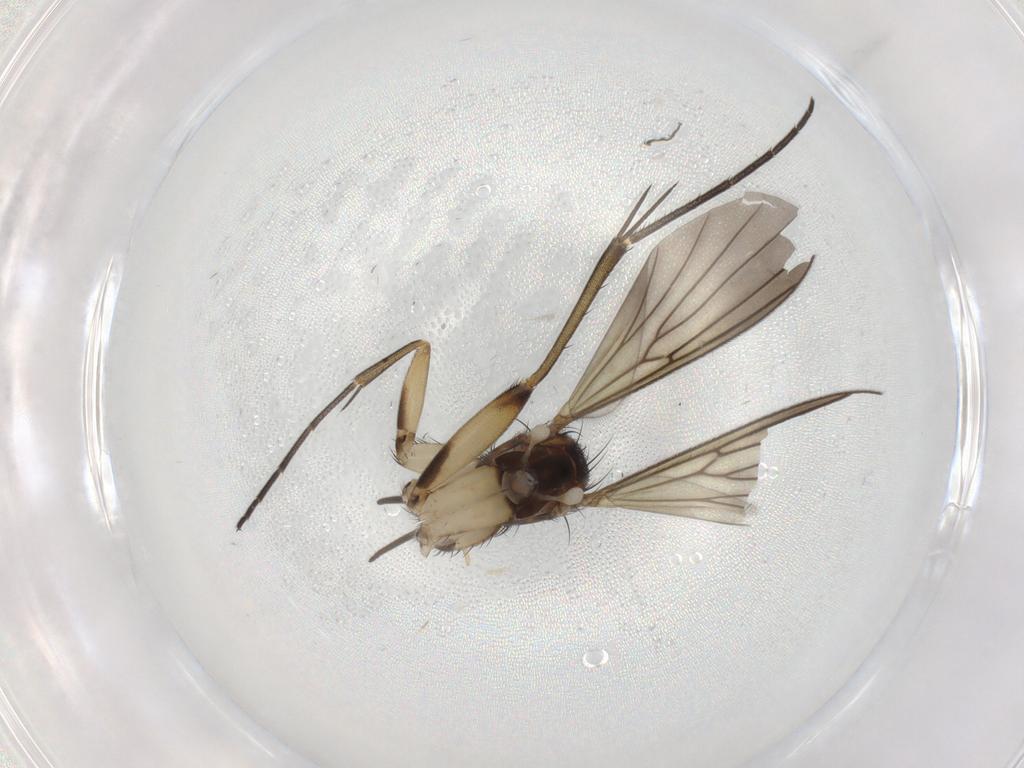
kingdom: Animalia
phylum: Arthropoda
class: Insecta
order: Diptera
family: Mycetophilidae
